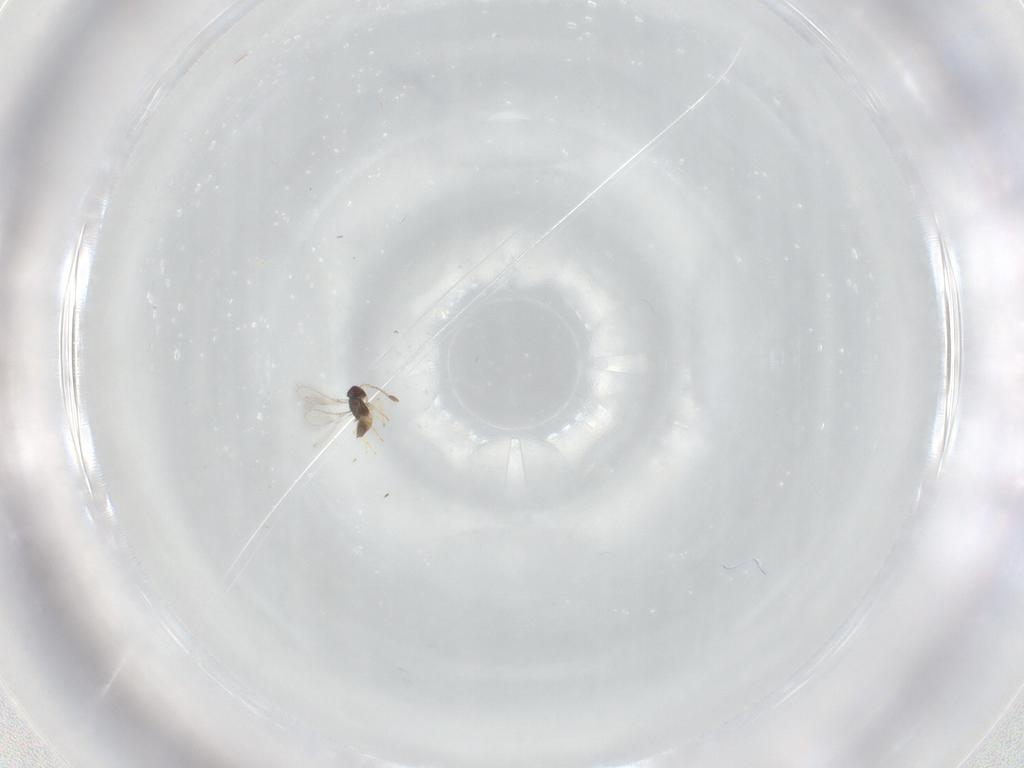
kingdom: Animalia
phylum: Arthropoda
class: Insecta
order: Hymenoptera
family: Mymaridae
